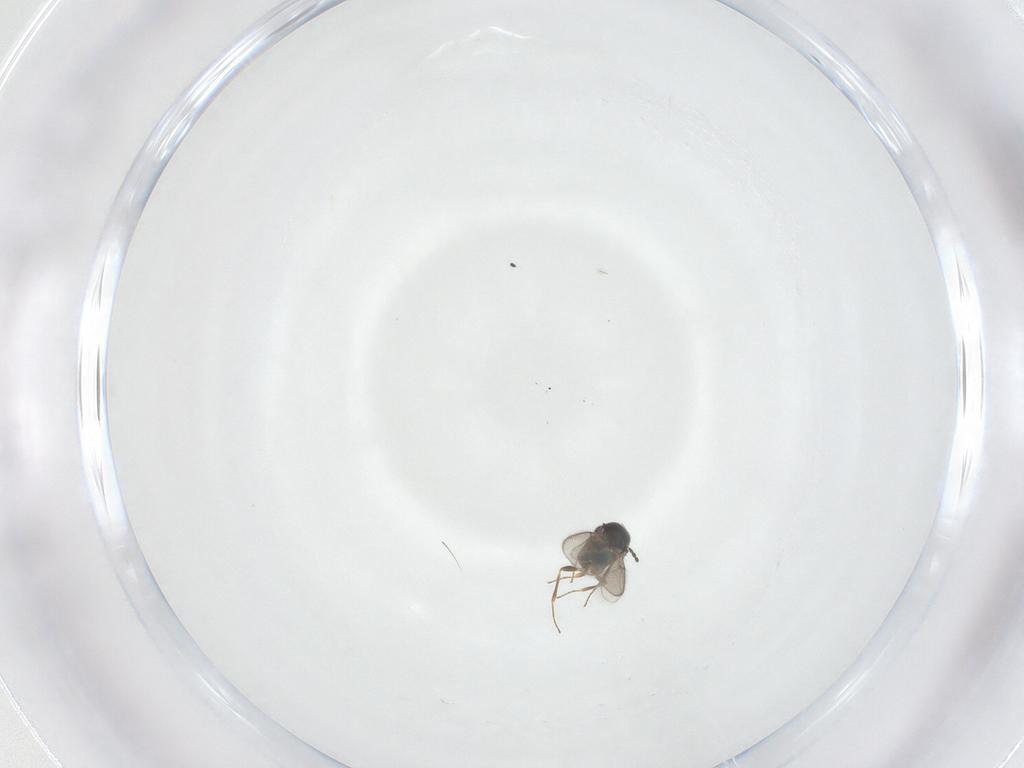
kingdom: Animalia
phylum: Arthropoda
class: Insecta
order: Hymenoptera
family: Scelionidae
